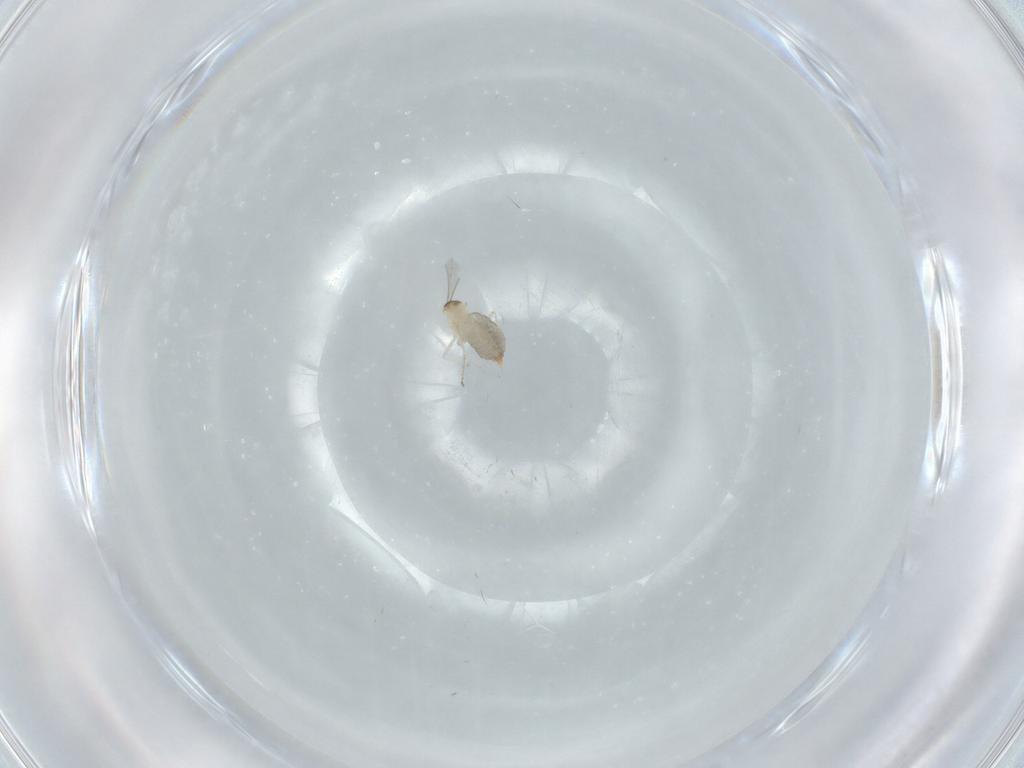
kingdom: Animalia
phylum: Arthropoda
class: Insecta
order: Diptera
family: Cecidomyiidae
